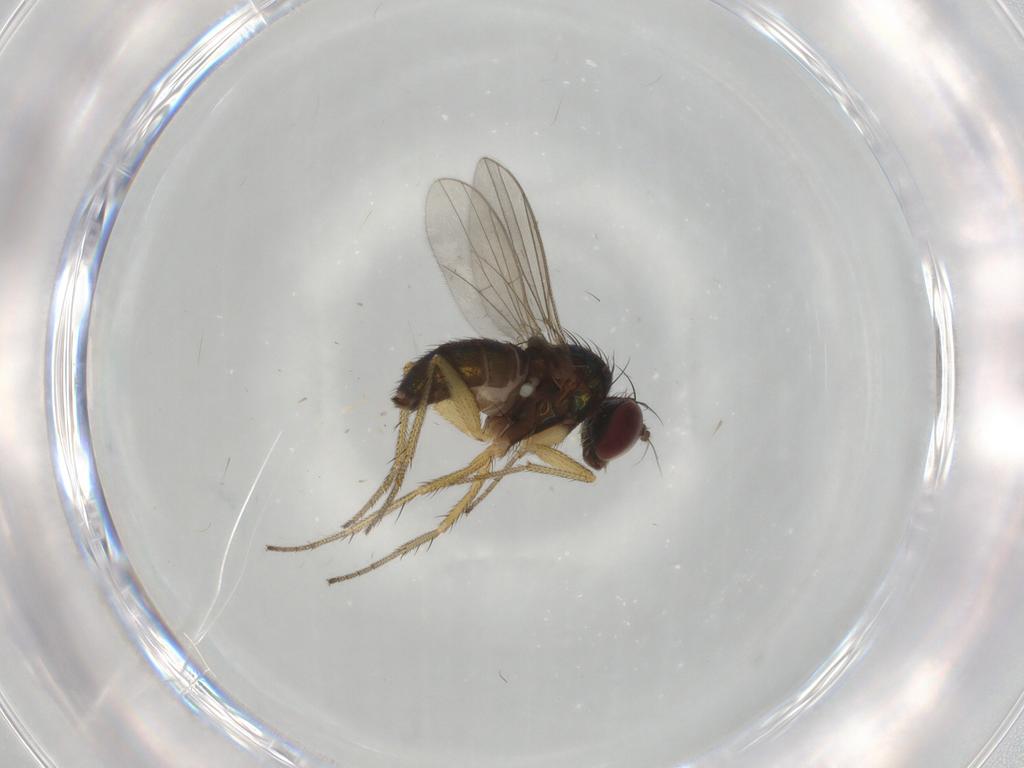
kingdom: Animalia
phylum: Arthropoda
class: Insecta
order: Diptera
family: Dolichopodidae
